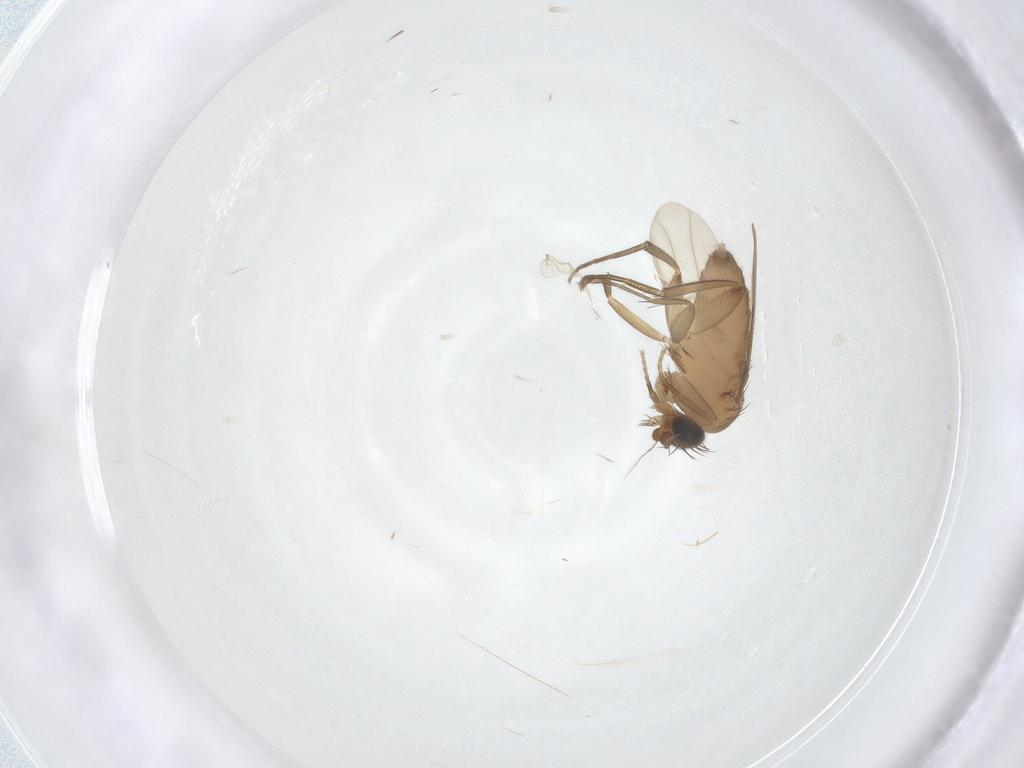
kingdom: Animalia
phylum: Arthropoda
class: Insecta
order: Diptera
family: Phoridae
